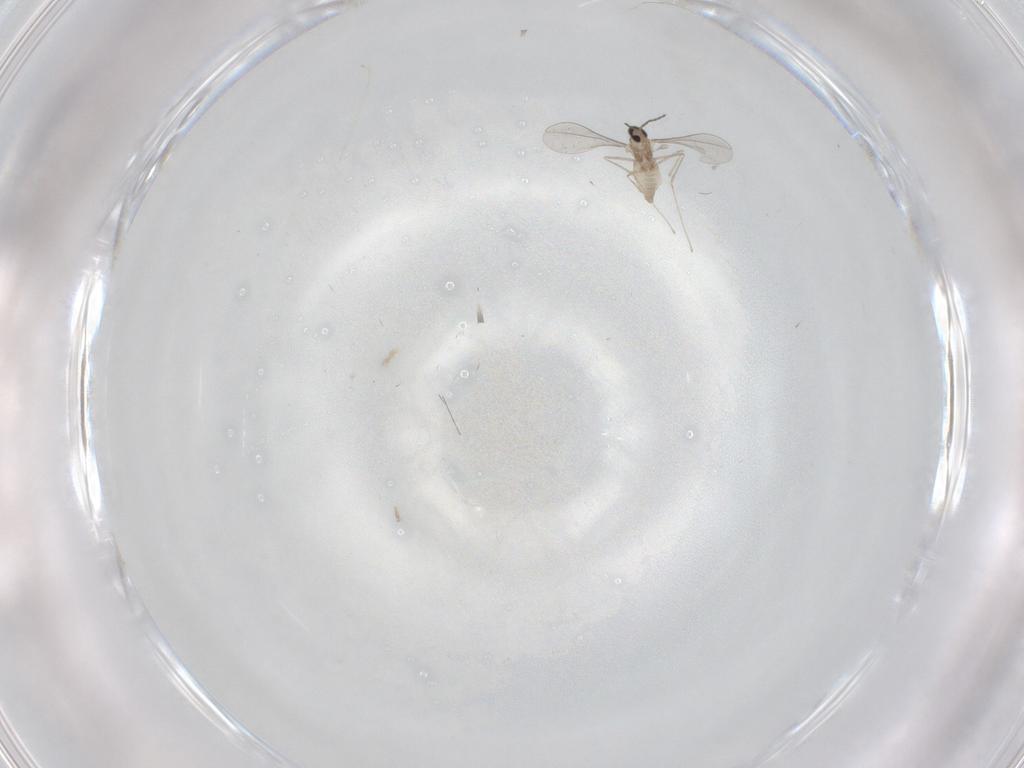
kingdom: Animalia
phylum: Arthropoda
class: Insecta
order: Diptera
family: Cecidomyiidae
